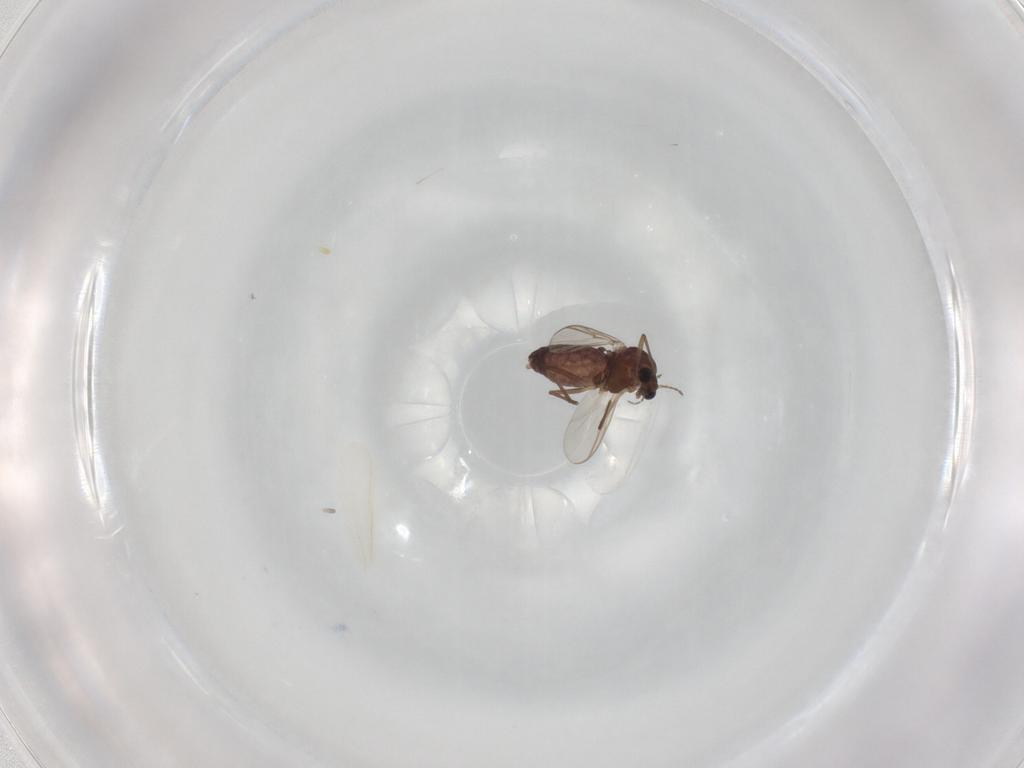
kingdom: Animalia
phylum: Arthropoda
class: Insecta
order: Diptera
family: Chironomidae
